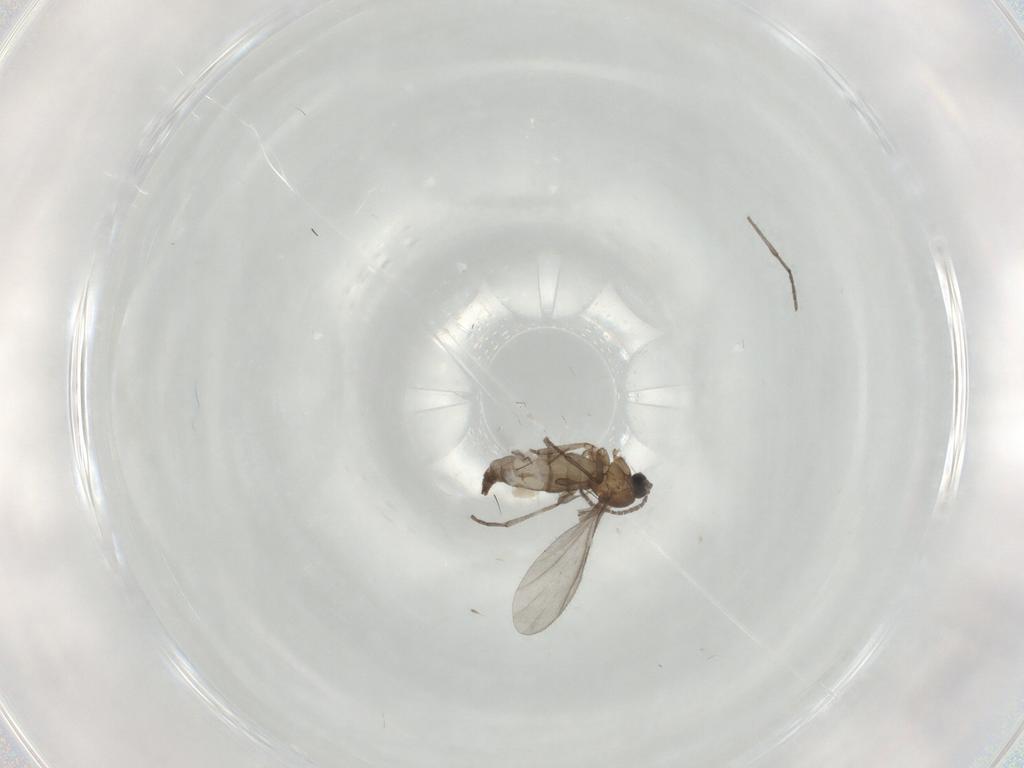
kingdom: Animalia
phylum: Arthropoda
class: Insecta
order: Diptera
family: Sciaridae
